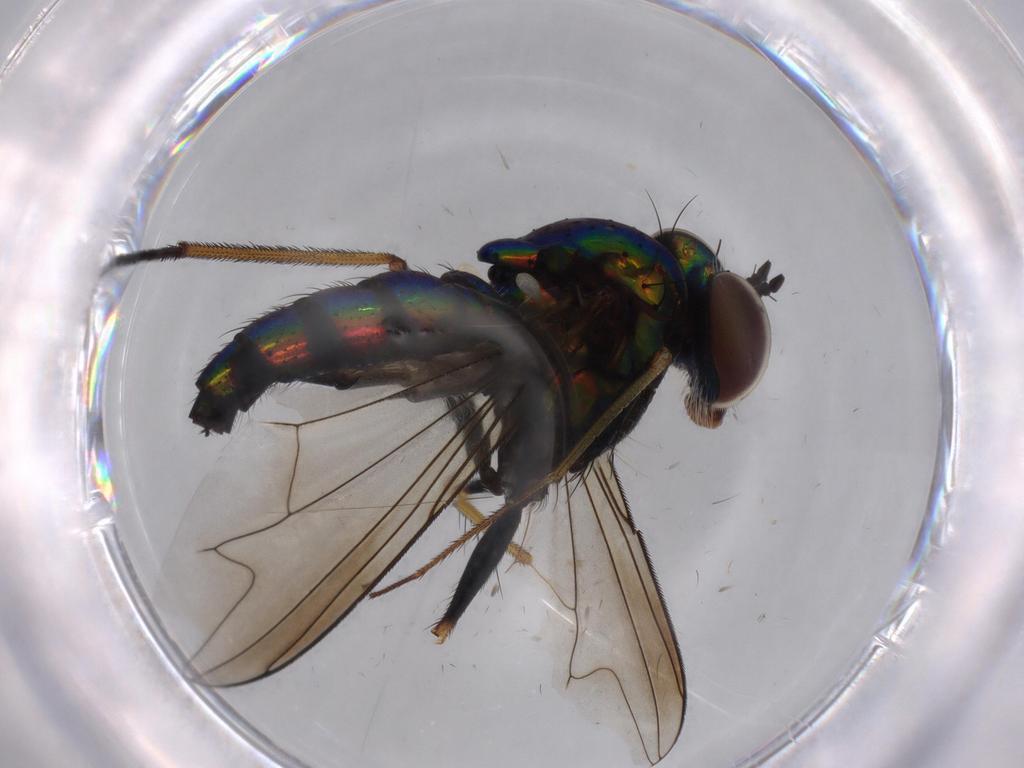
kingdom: Animalia
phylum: Arthropoda
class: Insecta
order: Diptera
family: Dolichopodidae
